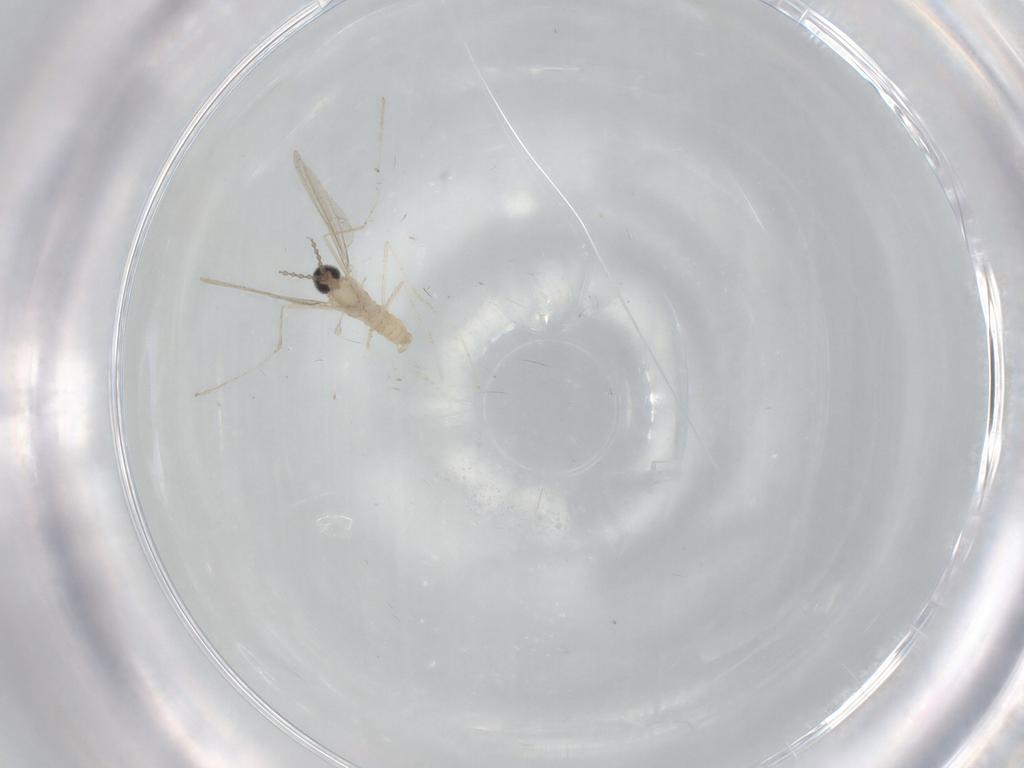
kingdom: Animalia
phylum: Arthropoda
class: Insecta
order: Diptera
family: Cecidomyiidae
